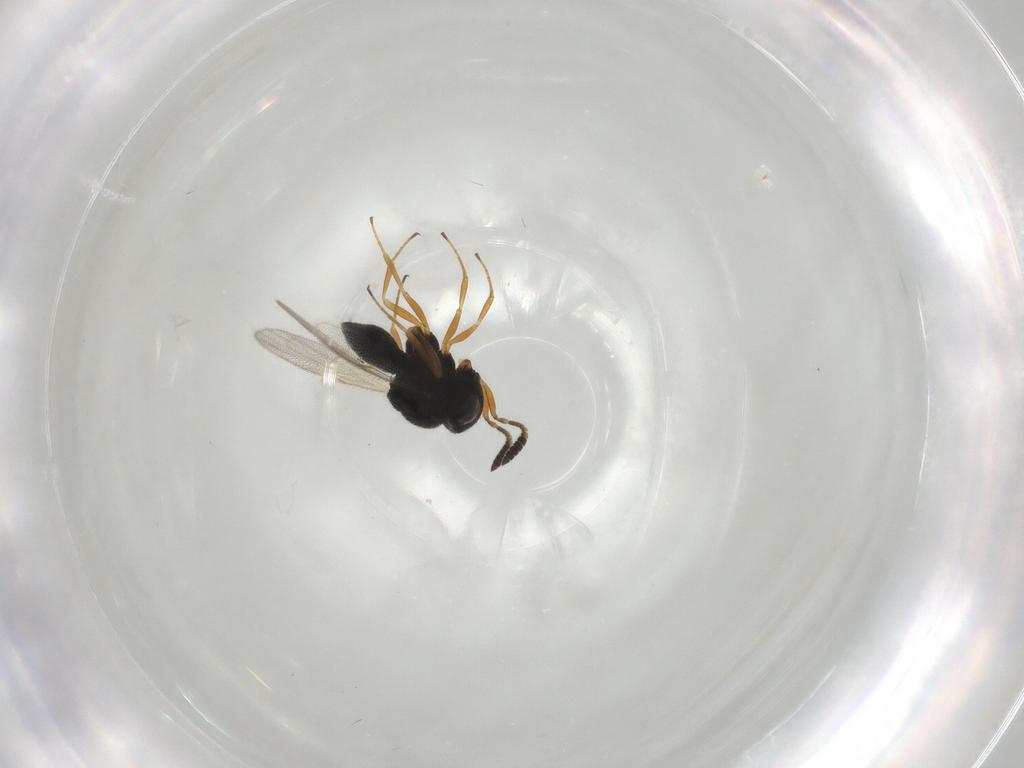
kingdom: Animalia
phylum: Arthropoda
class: Insecta
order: Hymenoptera
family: Scelionidae
